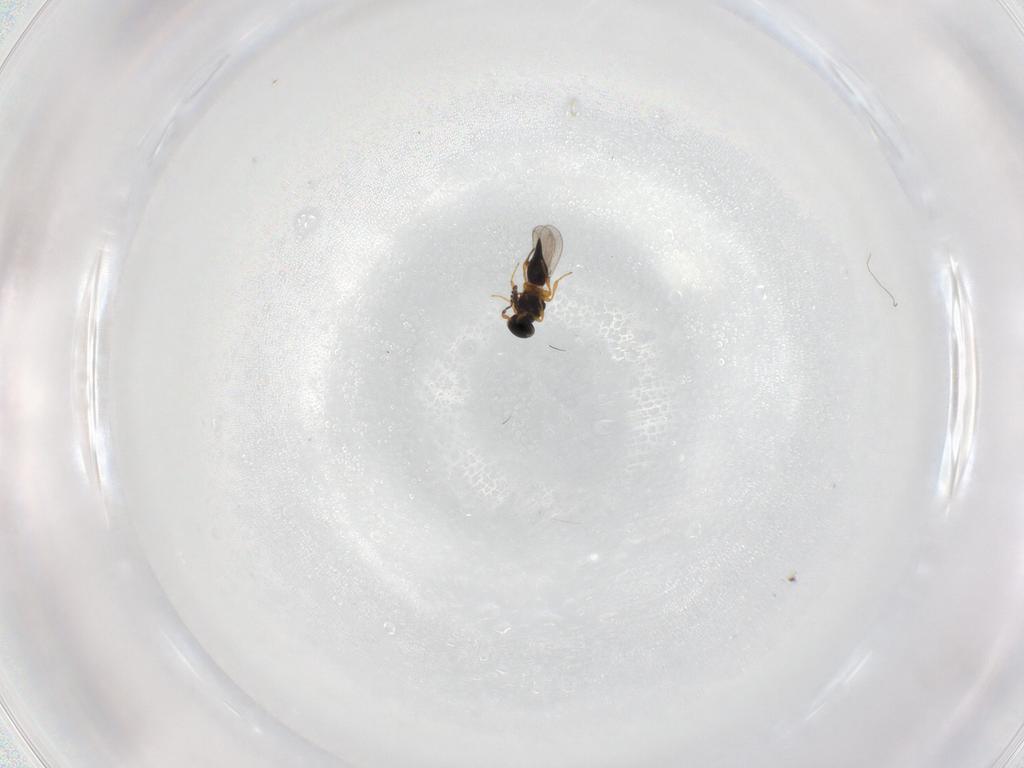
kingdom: Animalia
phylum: Arthropoda
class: Insecta
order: Hymenoptera
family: Platygastridae
